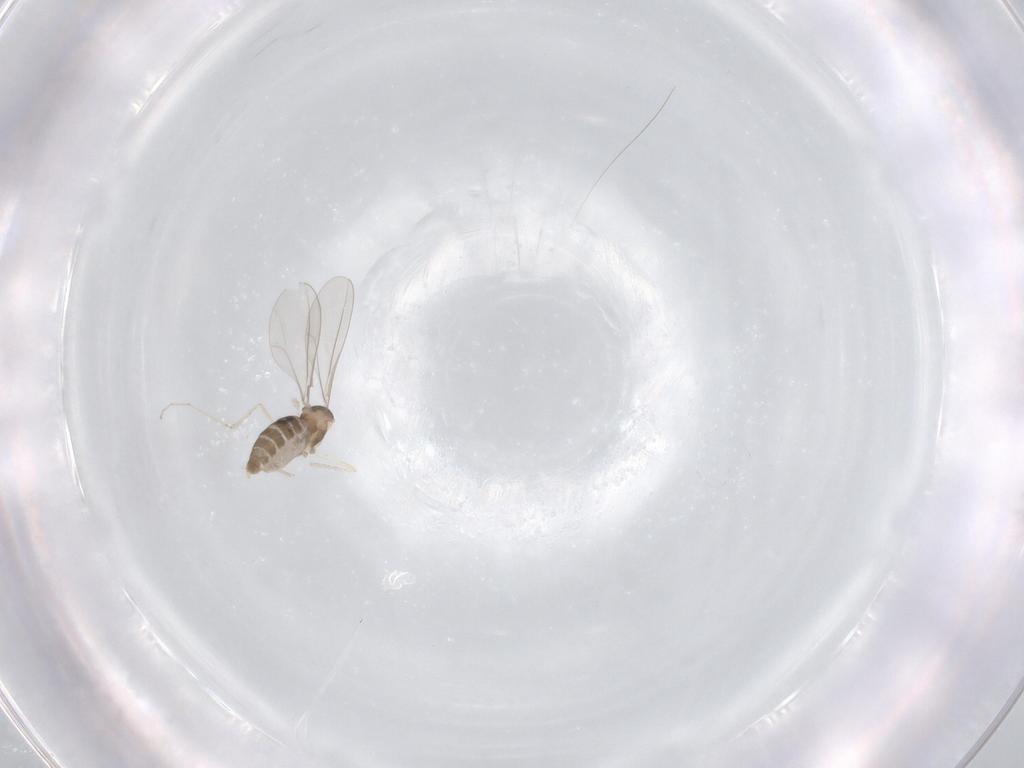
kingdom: Animalia
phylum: Arthropoda
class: Insecta
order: Diptera
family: Cecidomyiidae
